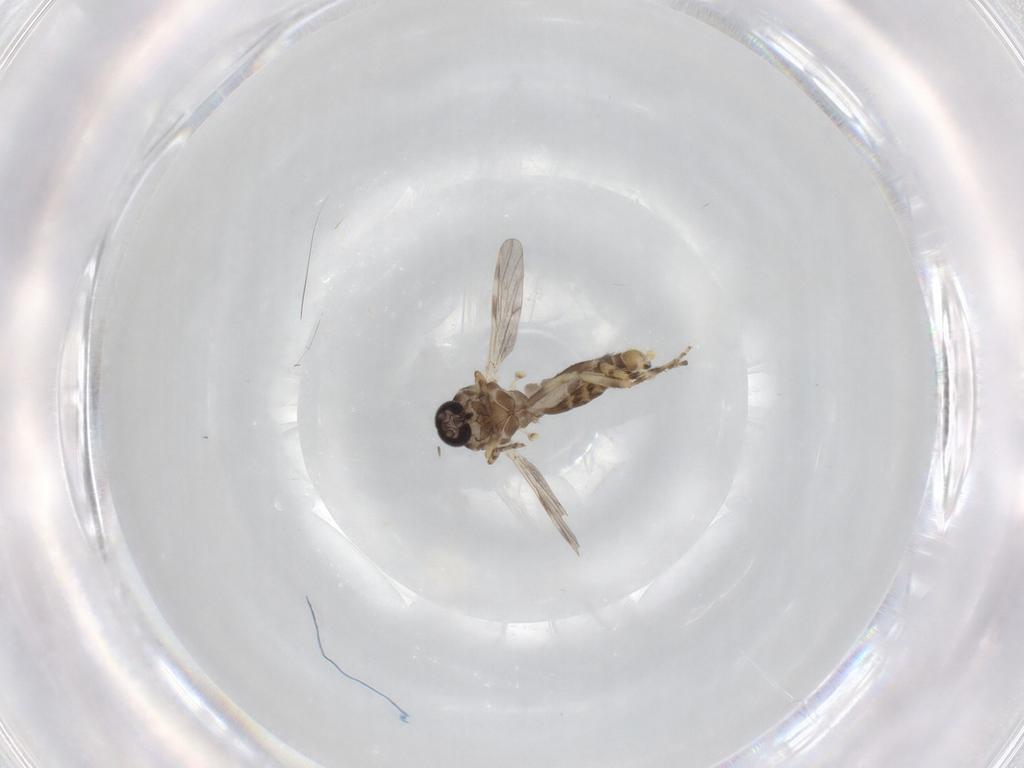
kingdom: Animalia
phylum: Arthropoda
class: Insecta
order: Diptera
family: Ceratopogonidae
